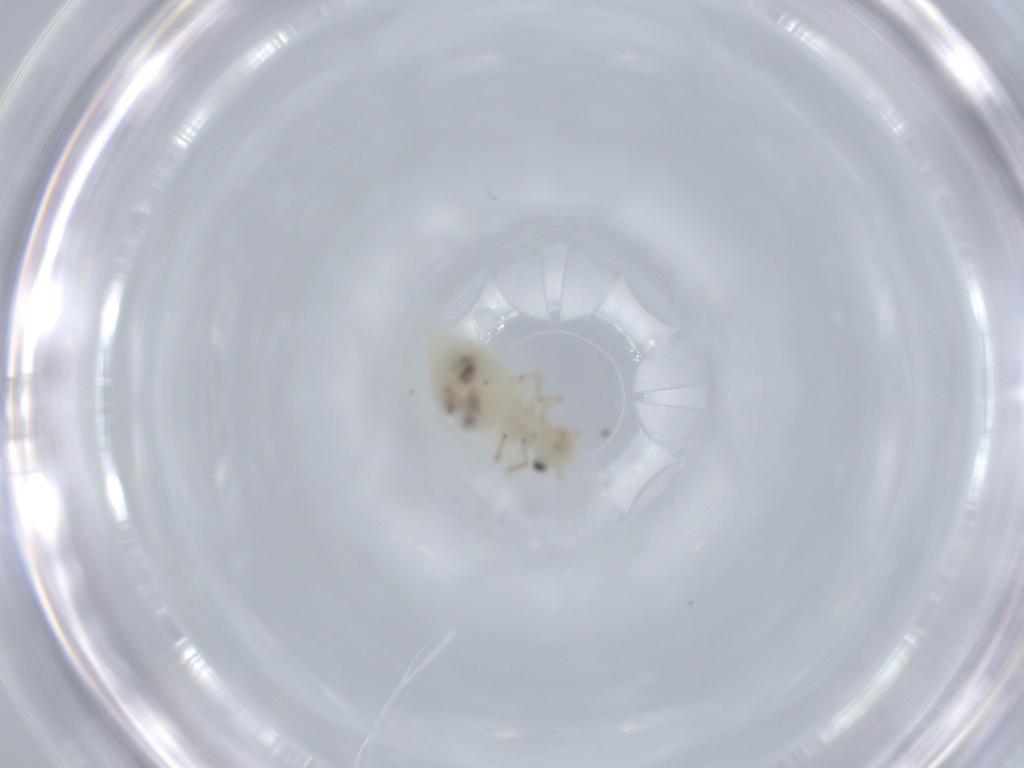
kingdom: Animalia
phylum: Arthropoda
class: Insecta
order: Psocodea
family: Caeciliusidae
